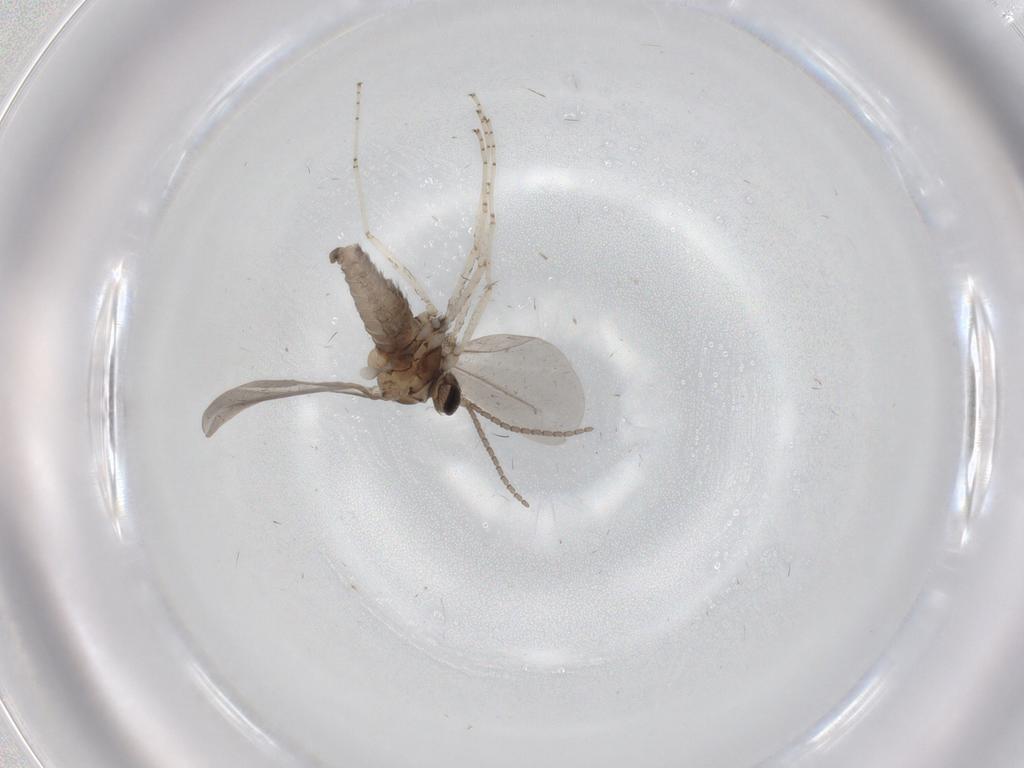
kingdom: Animalia
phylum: Arthropoda
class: Insecta
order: Diptera
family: Cecidomyiidae
